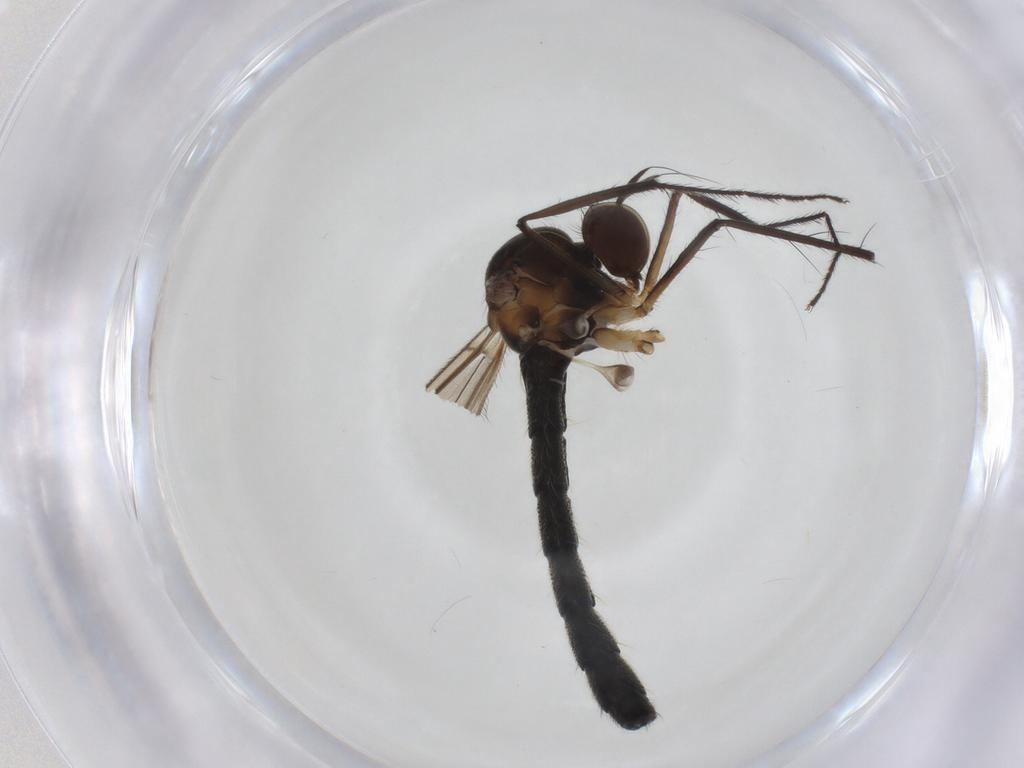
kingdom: Animalia
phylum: Arthropoda
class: Insecta
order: Diptera
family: Hybotidae
